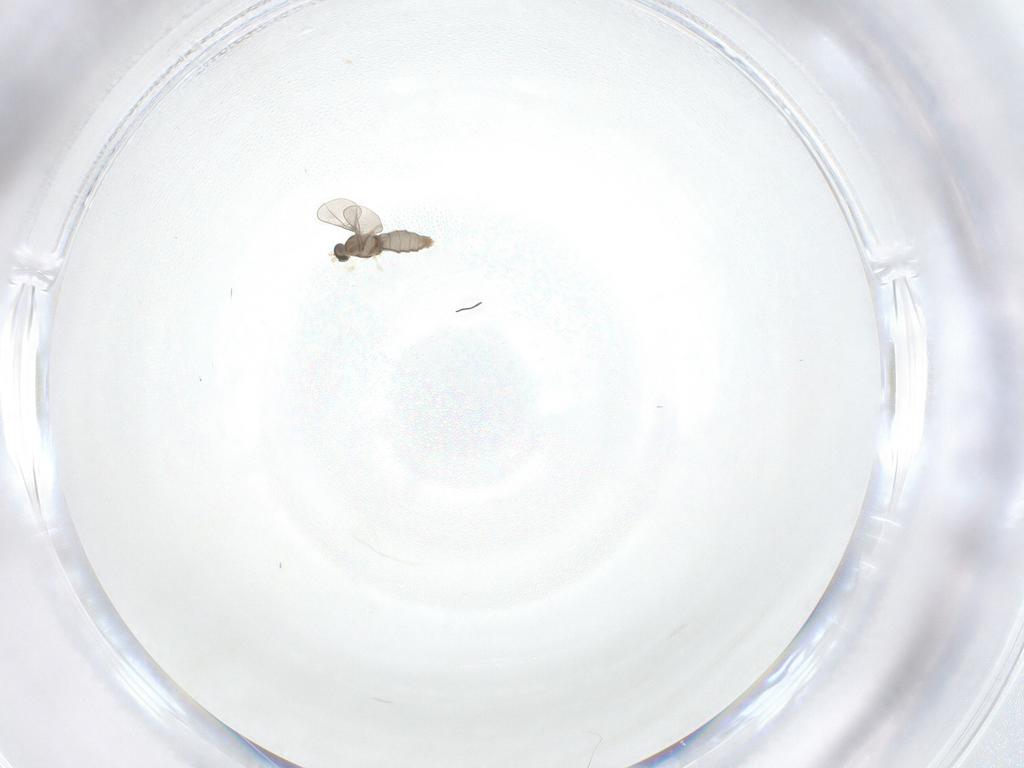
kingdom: Animalia
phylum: Arthropoda
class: Insecta
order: Diptera
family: Cecidomyiidae
